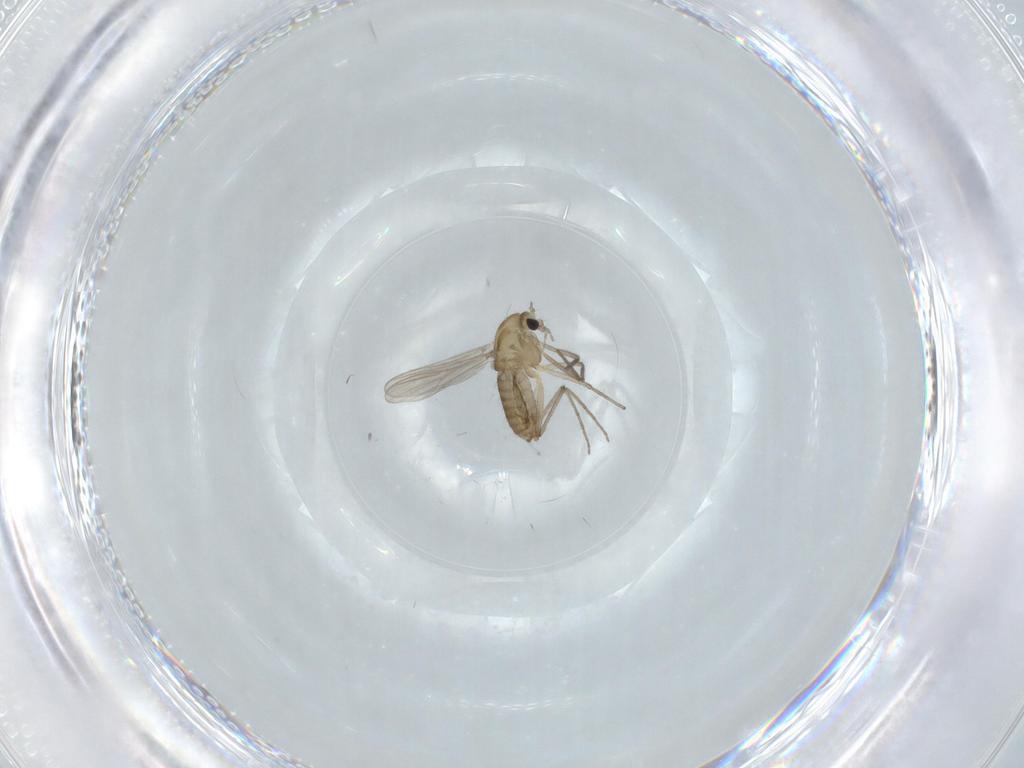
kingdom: Animalia
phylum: Arthropoda
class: Insecta
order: Diptera
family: Chironomidae
